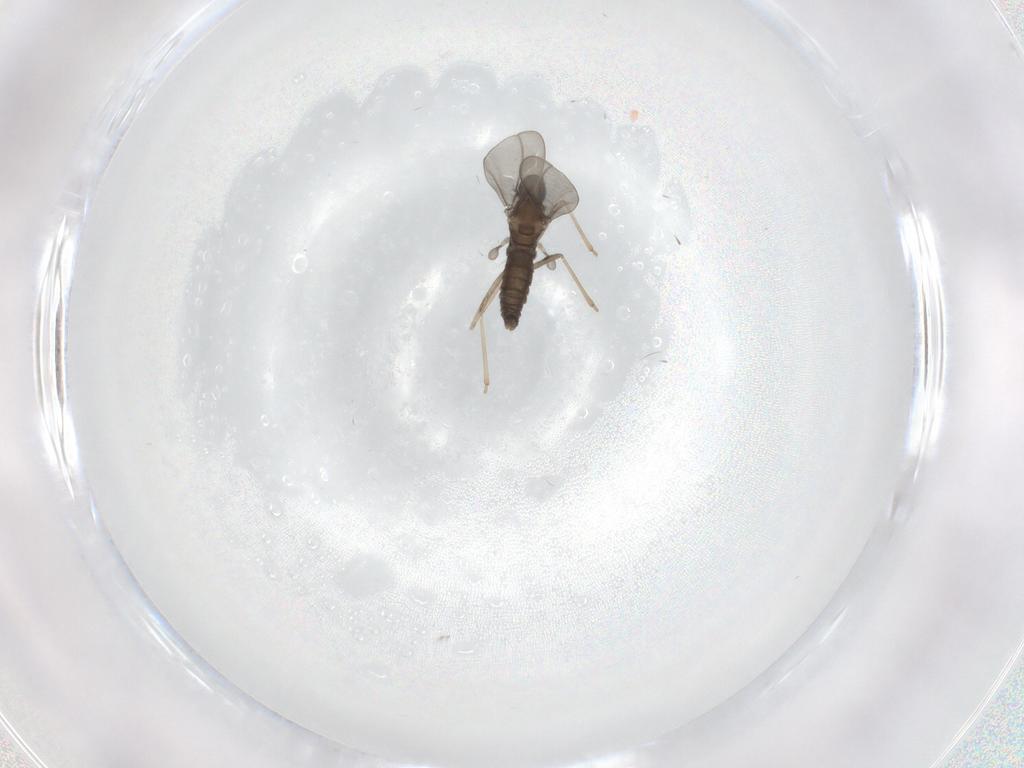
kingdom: Animalia
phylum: Arthropoda
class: Insecta
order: Diptera
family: Cecidomyiidae
